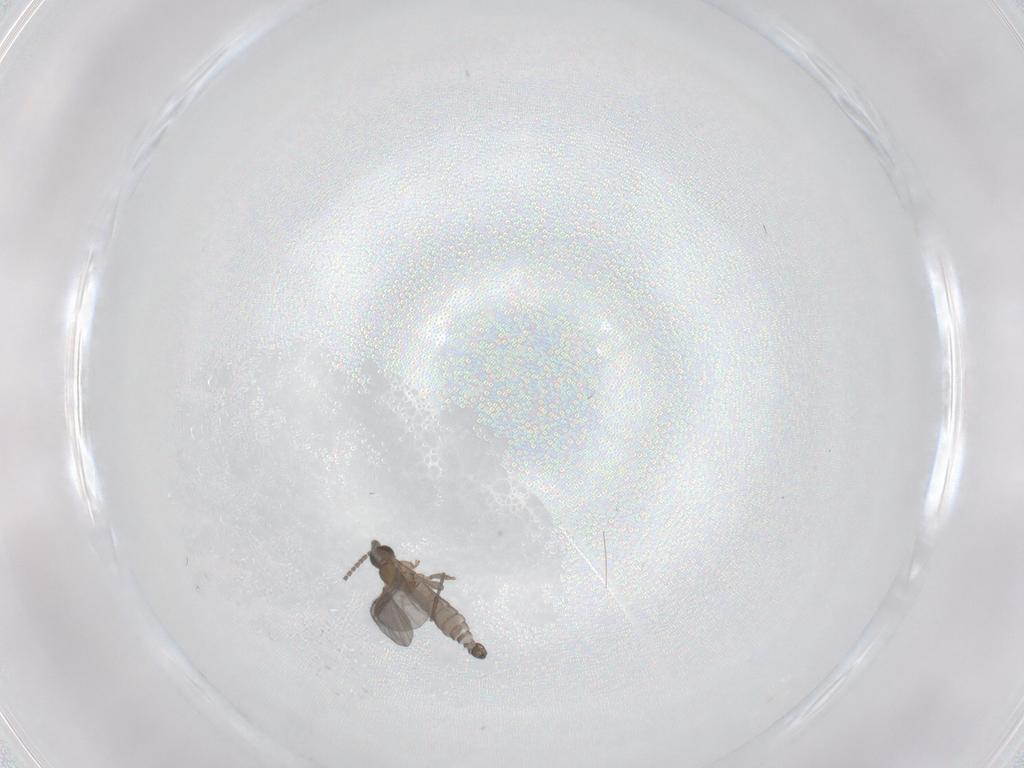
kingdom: Animalia
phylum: Arthropoda
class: Insecta
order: Diptera
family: Sciaridae
